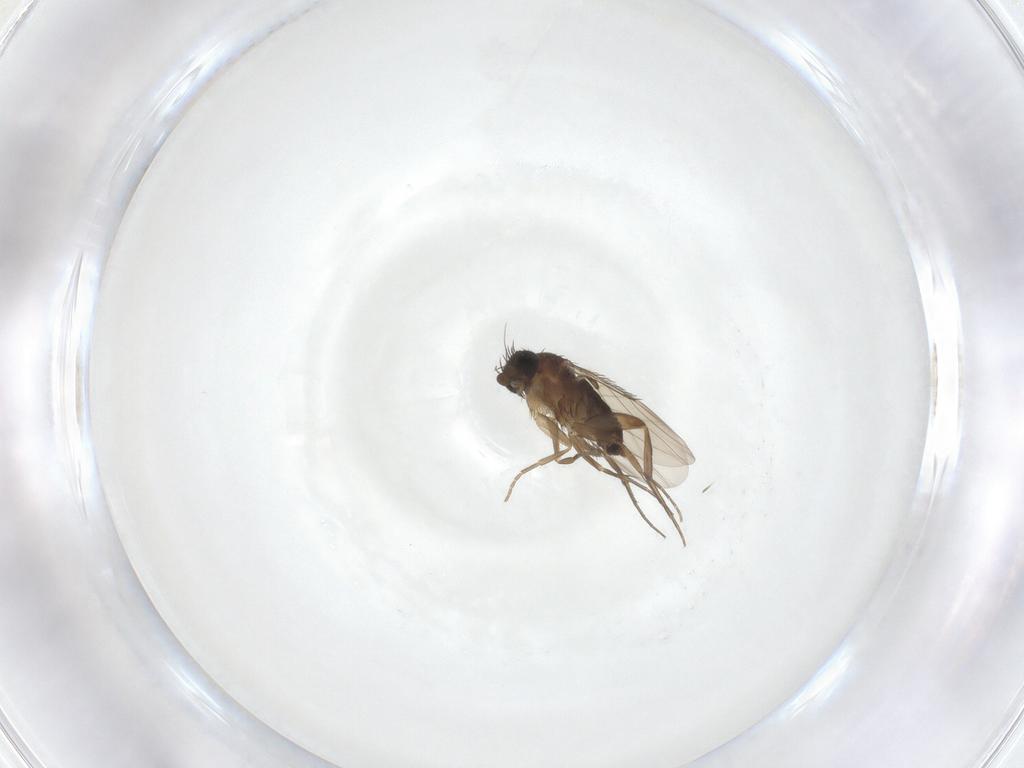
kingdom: Animalia
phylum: Arthropoda
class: Insecta
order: Diptera
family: Phoridae
